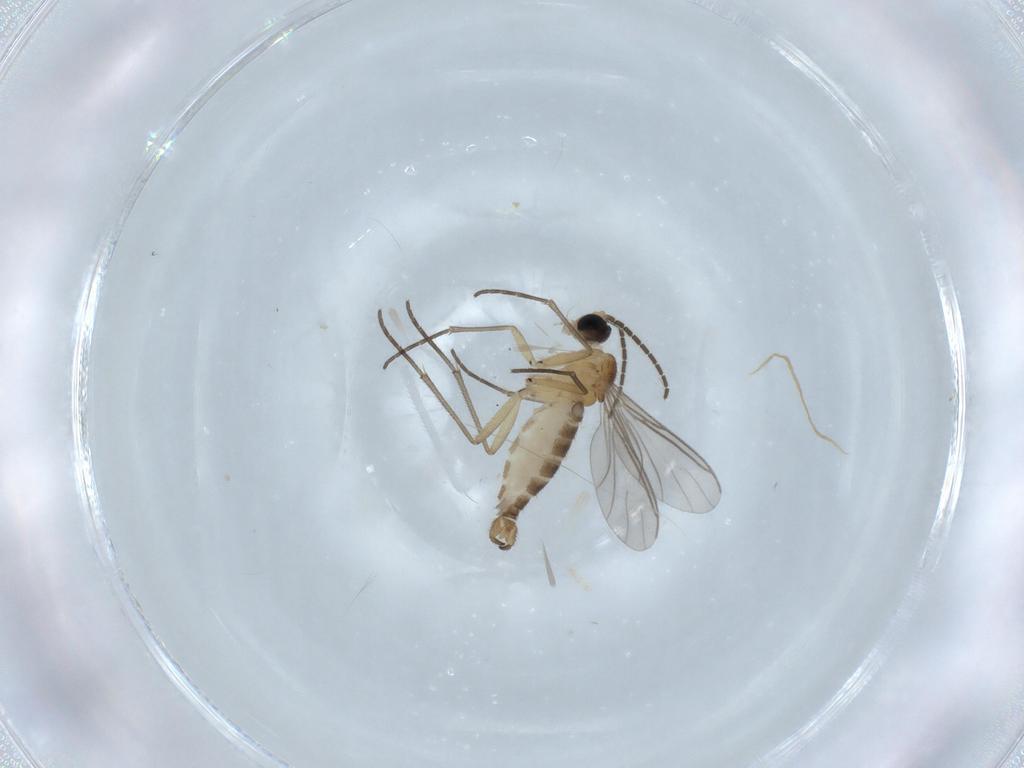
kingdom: Animalia
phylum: Arthropoda
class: Insecta
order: Diptera
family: Sciaridae
